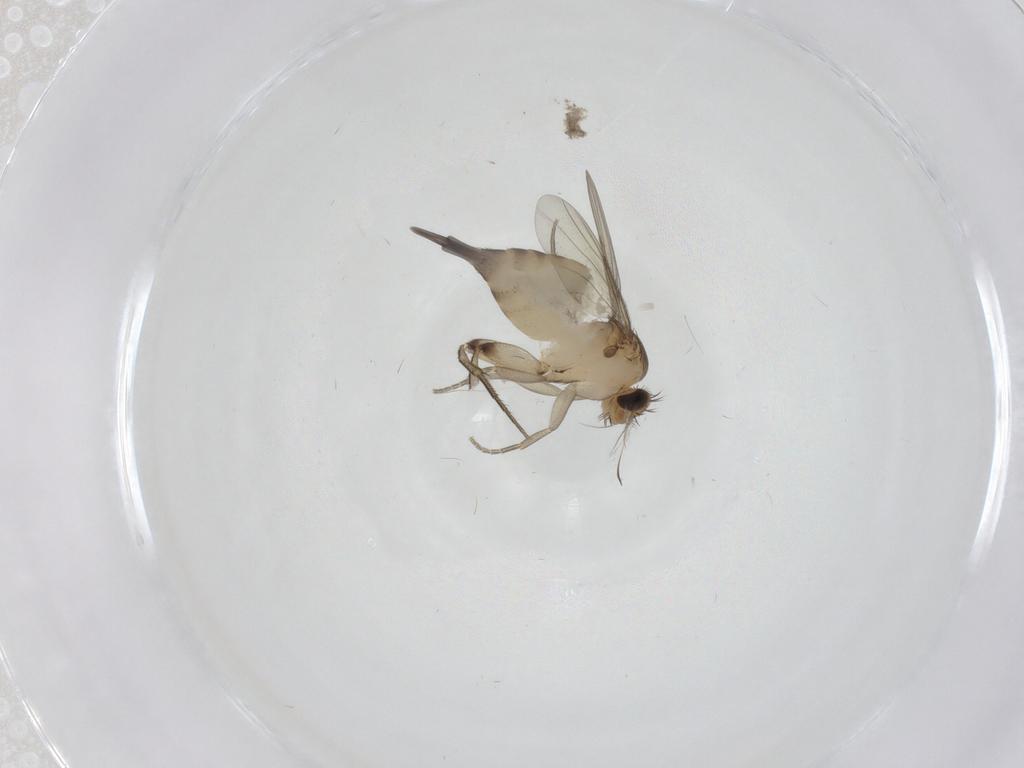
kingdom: Animalia
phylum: Arthropoda
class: Insecta
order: Diptera
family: Phoridae
